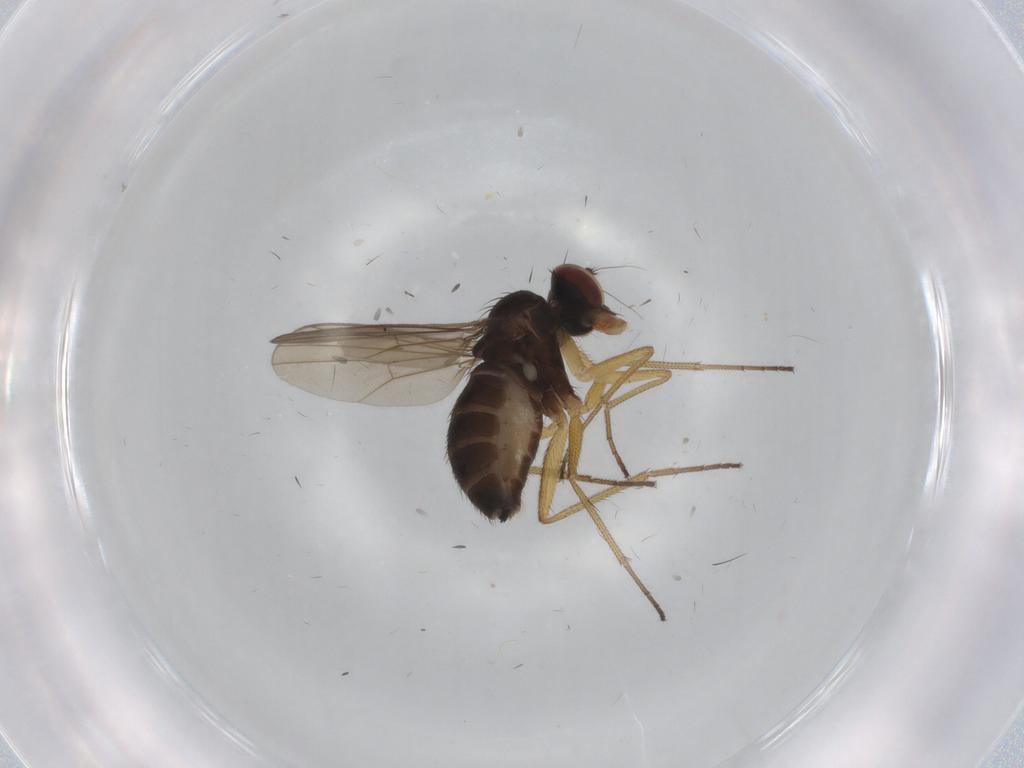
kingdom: Animalia
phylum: Arthropoda
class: Insecta
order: Diptera
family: Dolichopodidae
